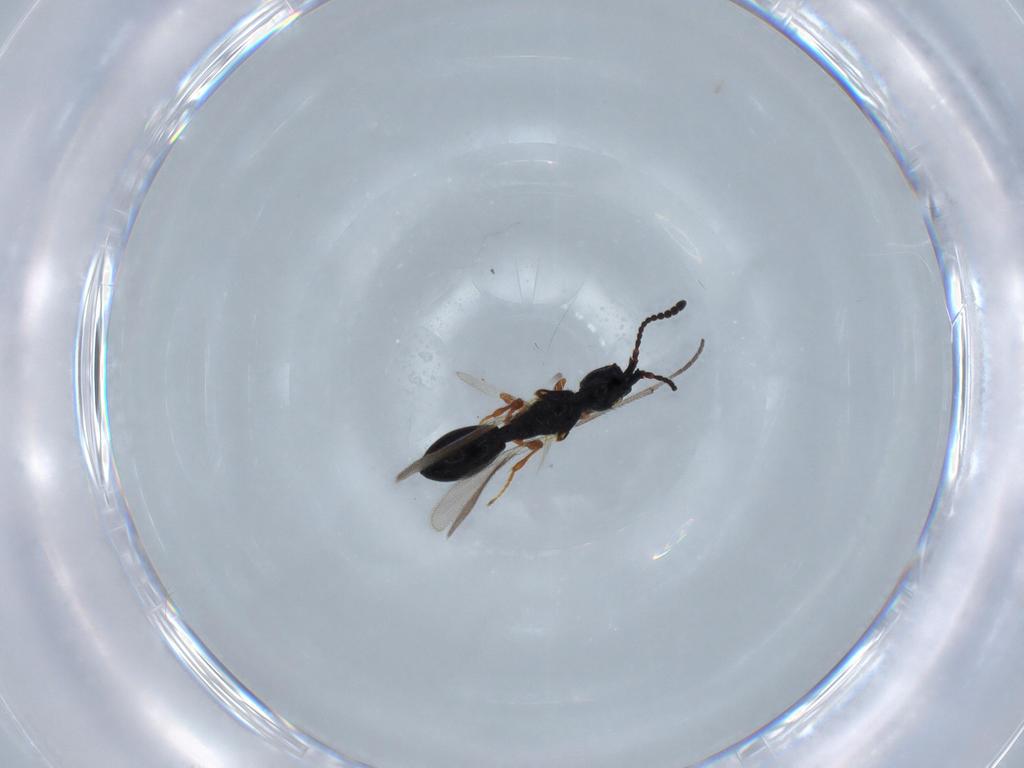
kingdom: Animalia
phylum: Arthropoda
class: Insecta
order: Hymenoptera
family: Diapriidae
